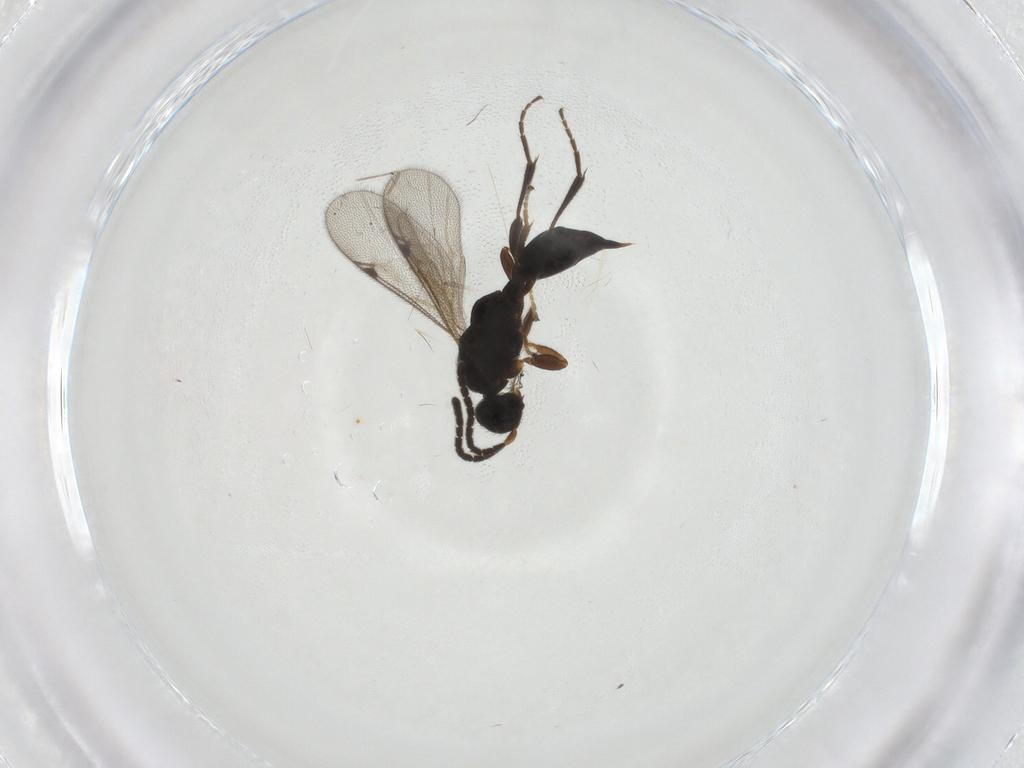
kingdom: Animalia
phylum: Arthropoda
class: Insecta
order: Hymenoptera
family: Proctotrupidae
